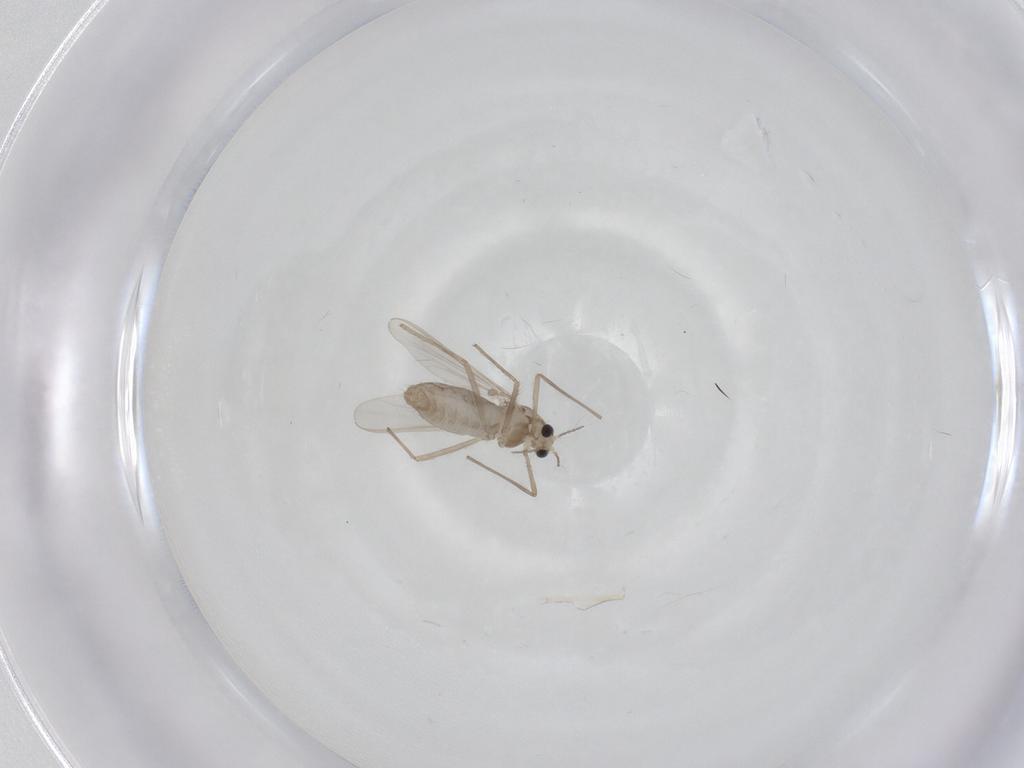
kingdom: Animalia
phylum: Arthropoda
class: Insecta
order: Diptera
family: Chironomidae
